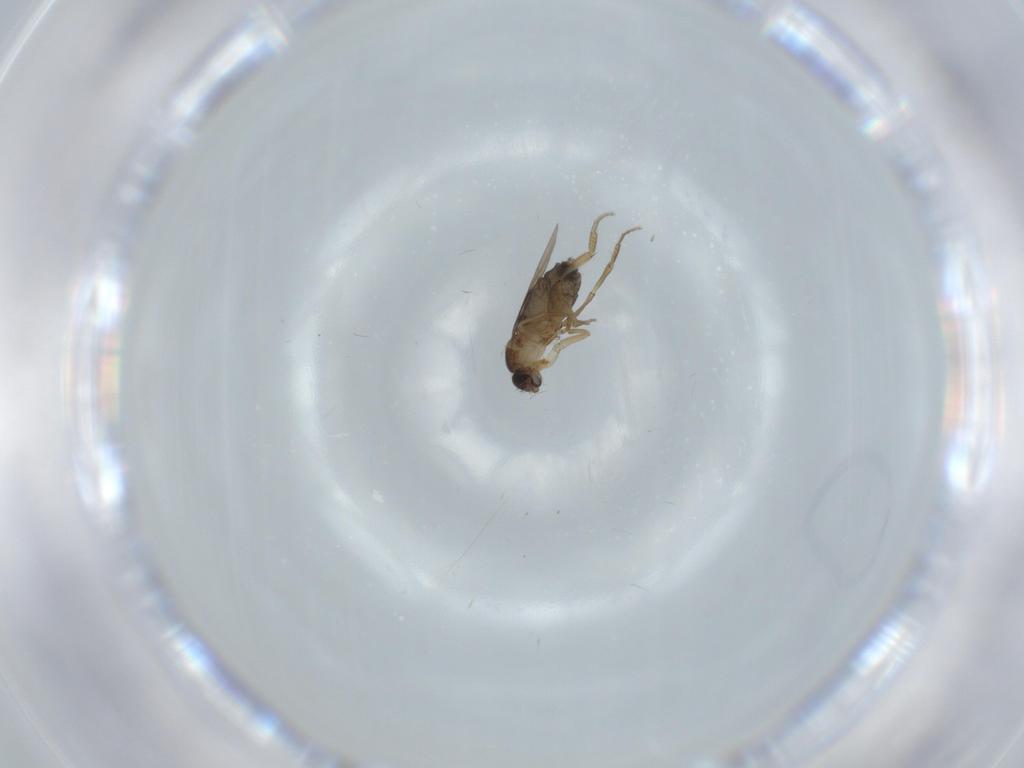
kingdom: Animalia
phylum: Arthropoda
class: Insecta
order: Diptera
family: Phoridae
